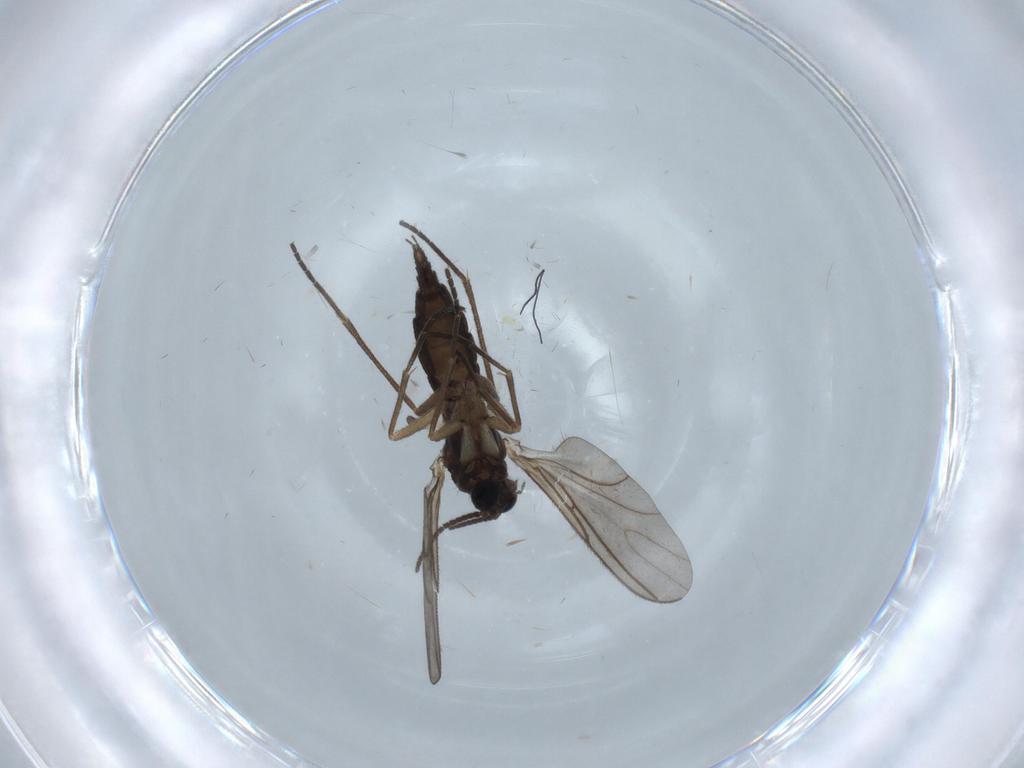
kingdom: Animalia
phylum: Arthropoda
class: Insecta
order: Diptera
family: Sciaridae
